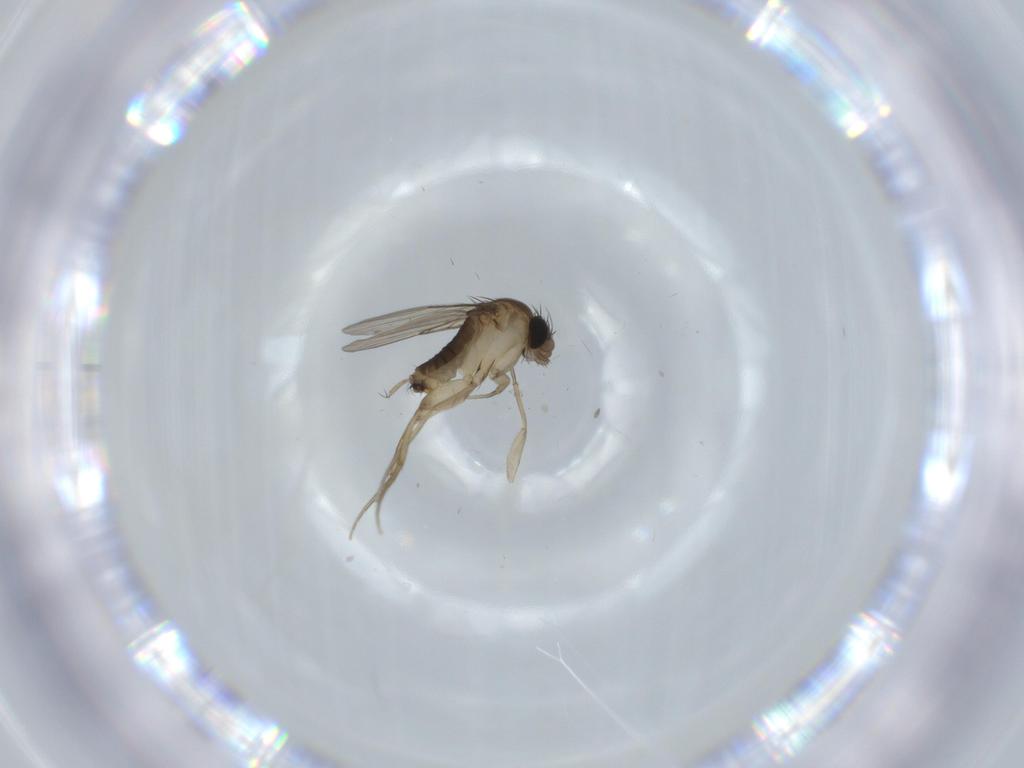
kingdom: Animalia
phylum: Arthropoda
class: Insecta
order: Diptera
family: Phoridae
